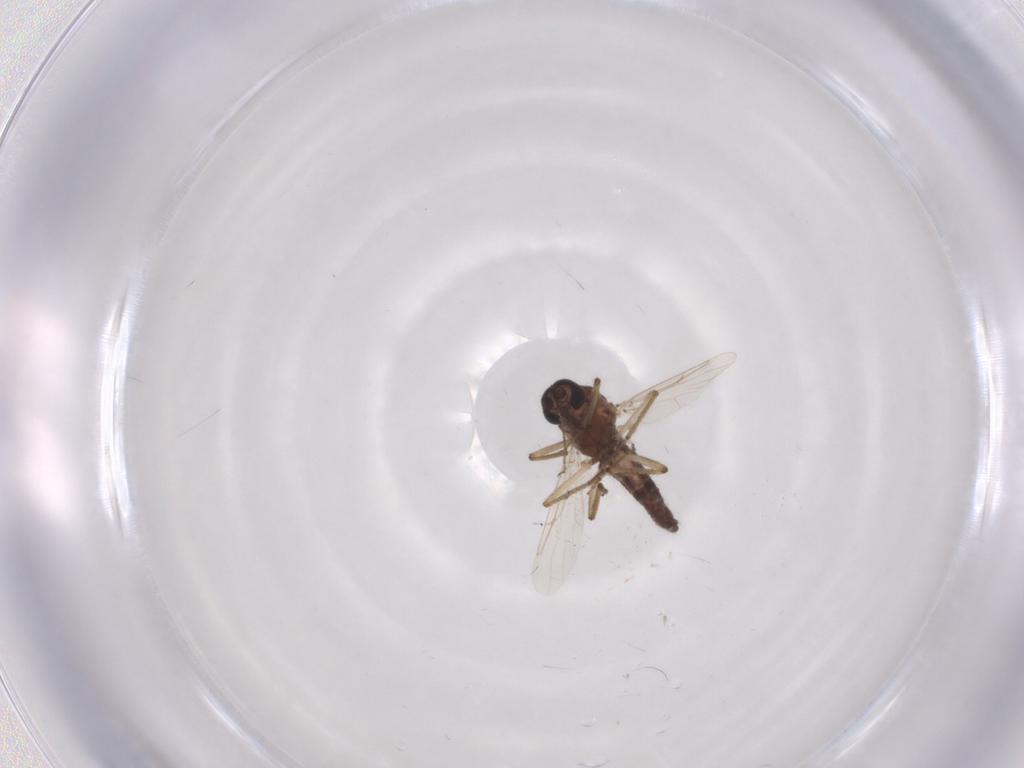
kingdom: Animalia
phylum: Arthropoda
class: Insecta
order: Diptera
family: Ceratopogonidae
